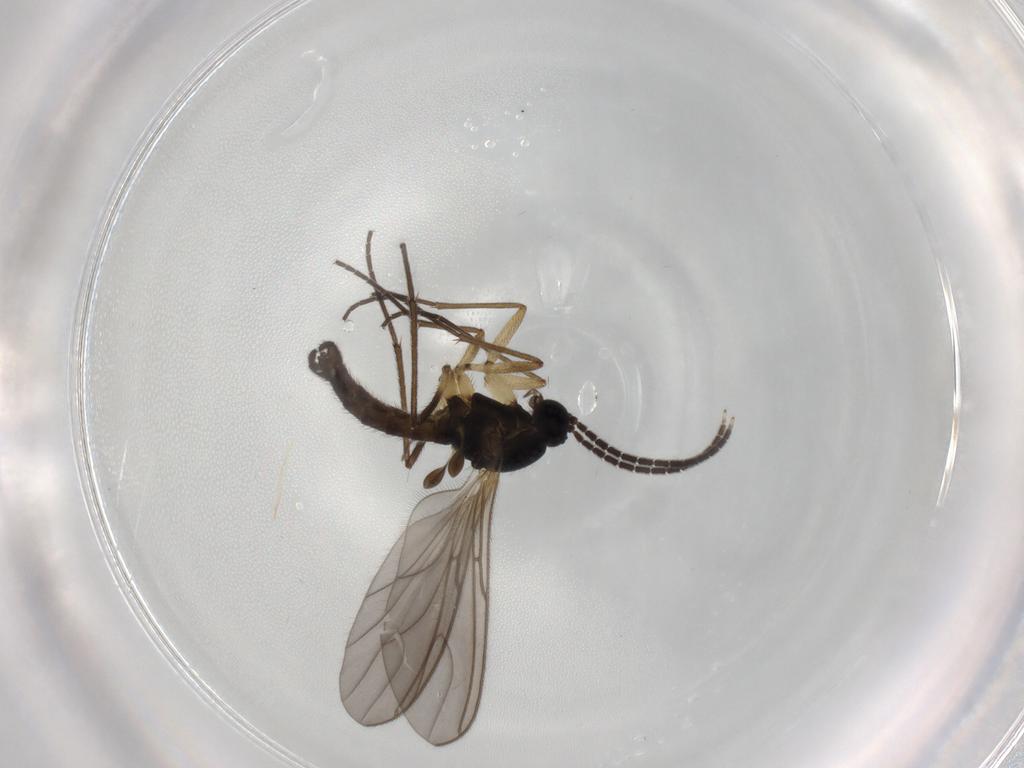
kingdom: Animalia
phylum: Arthropoda
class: Insecta
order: Diptera
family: Sciaridae
